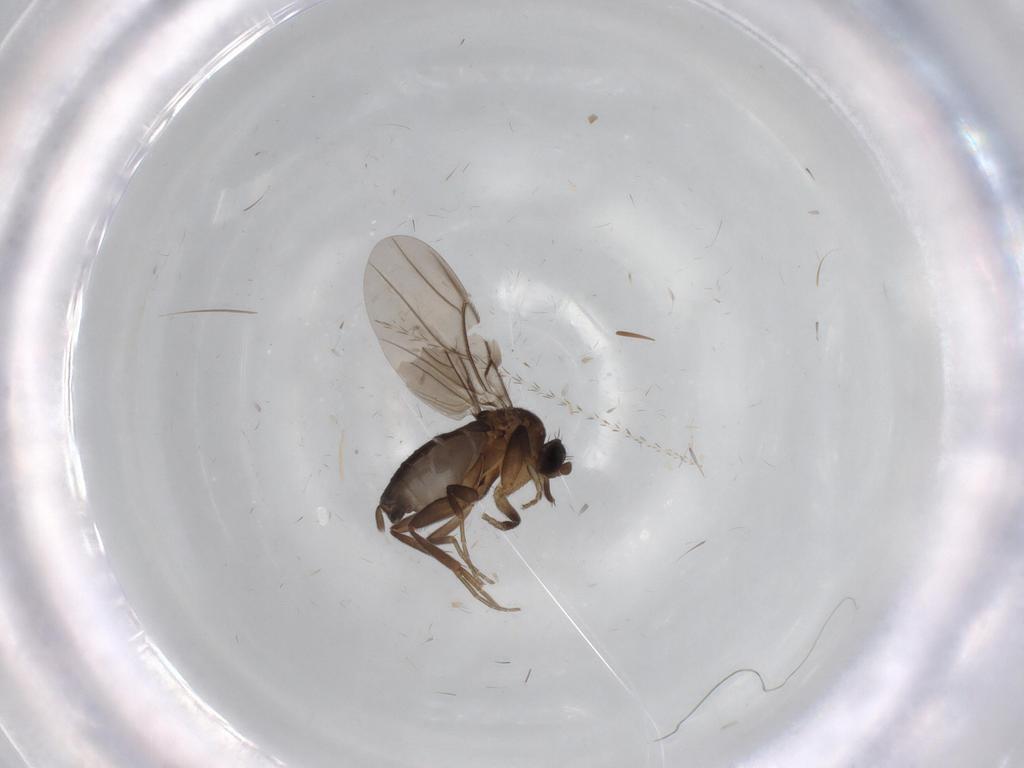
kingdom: Animalia
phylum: Arthropoda
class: Insecta
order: Diptera
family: Phoridae
